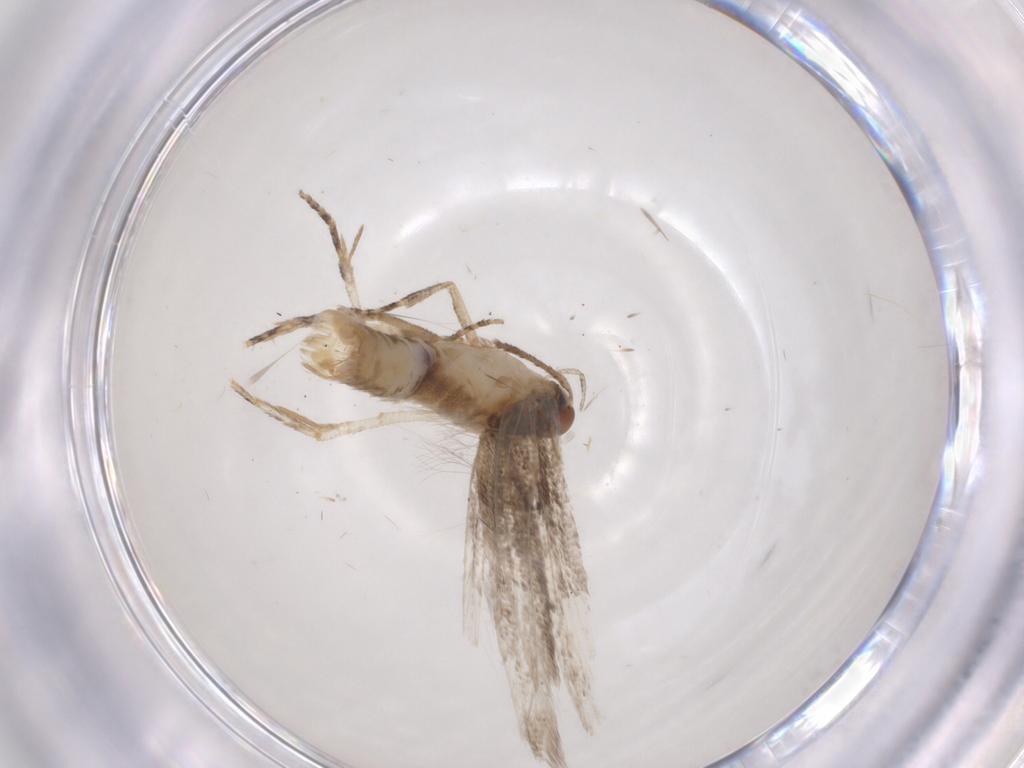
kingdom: Animalia
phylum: Arthropoda
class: Insecta
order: Lepidoptera
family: Cosmopterigidae
